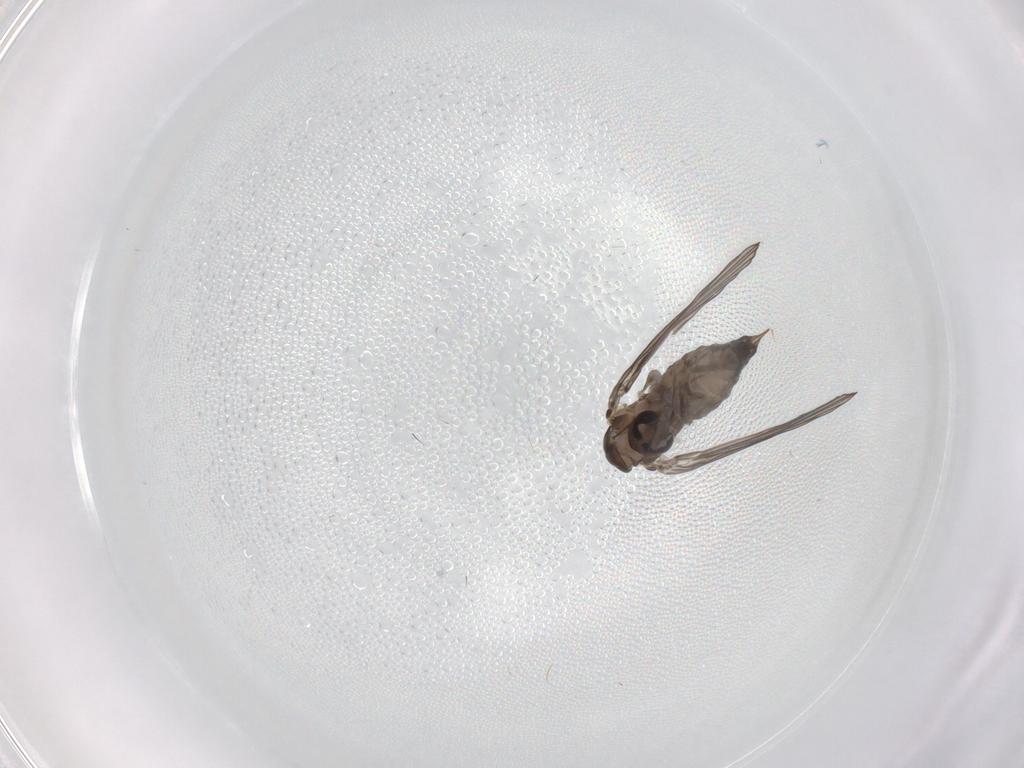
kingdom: Animalia
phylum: Arthropoda
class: Insecta
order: Diptera
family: Psychodidae
